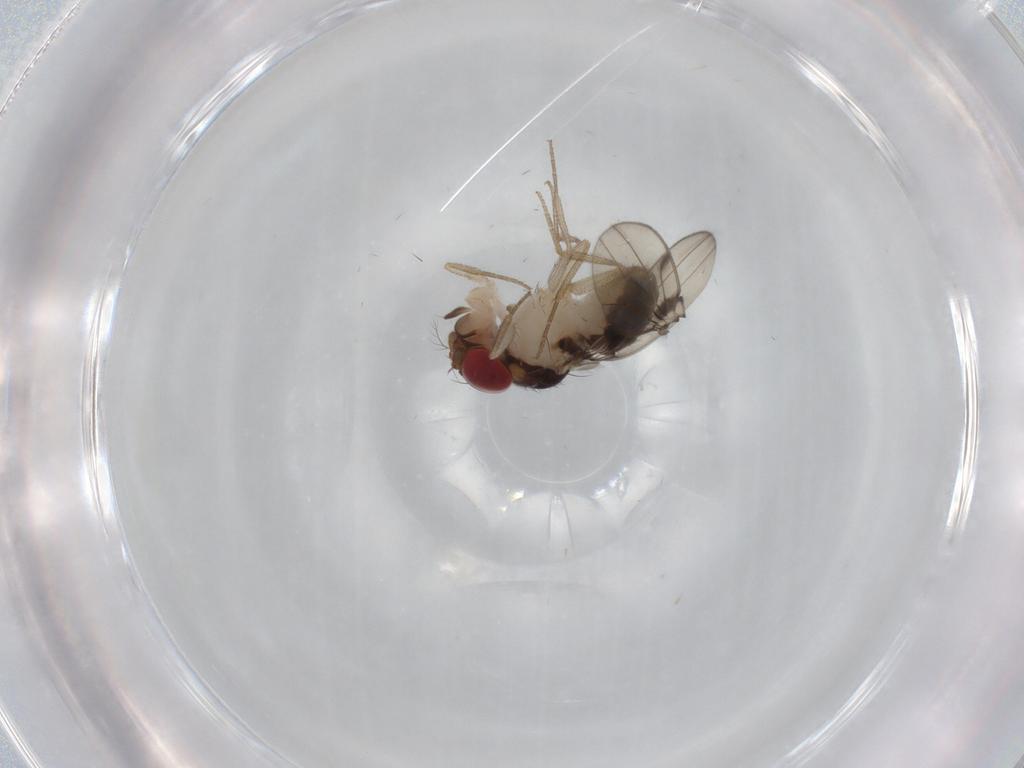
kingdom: Animalia
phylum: Arthropoda
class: Insecta
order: Diptera
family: Drosophilidae
